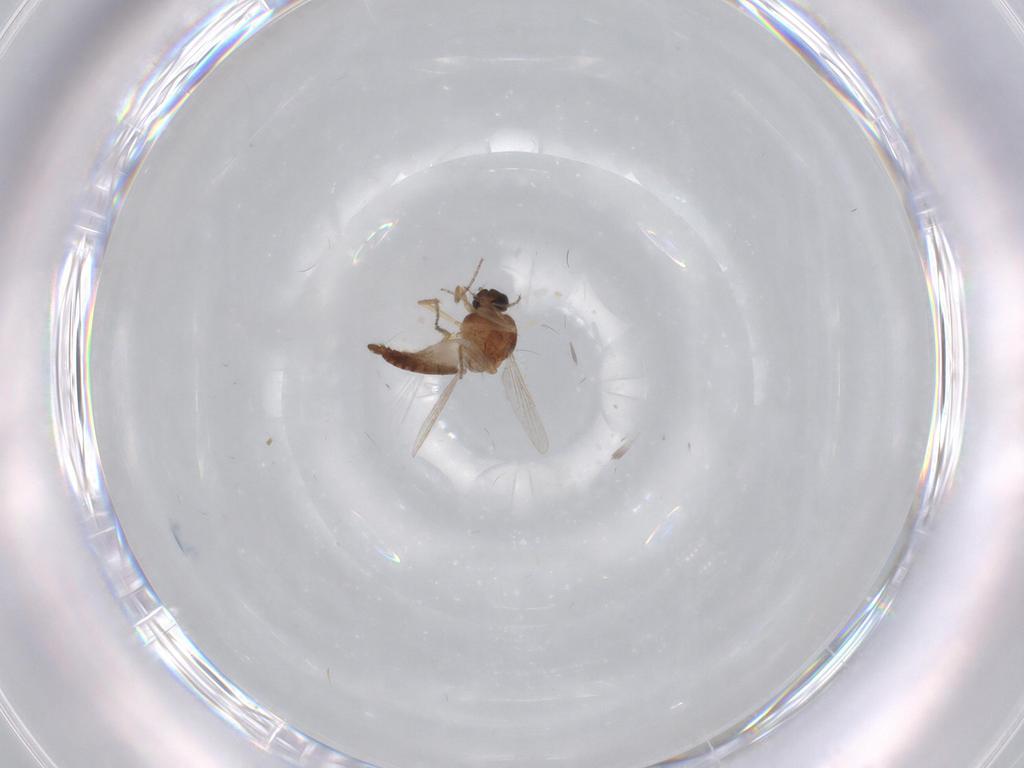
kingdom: Animalia
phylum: Arthropoda
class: Insecta
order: Diptera
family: Ceratopogonidae
